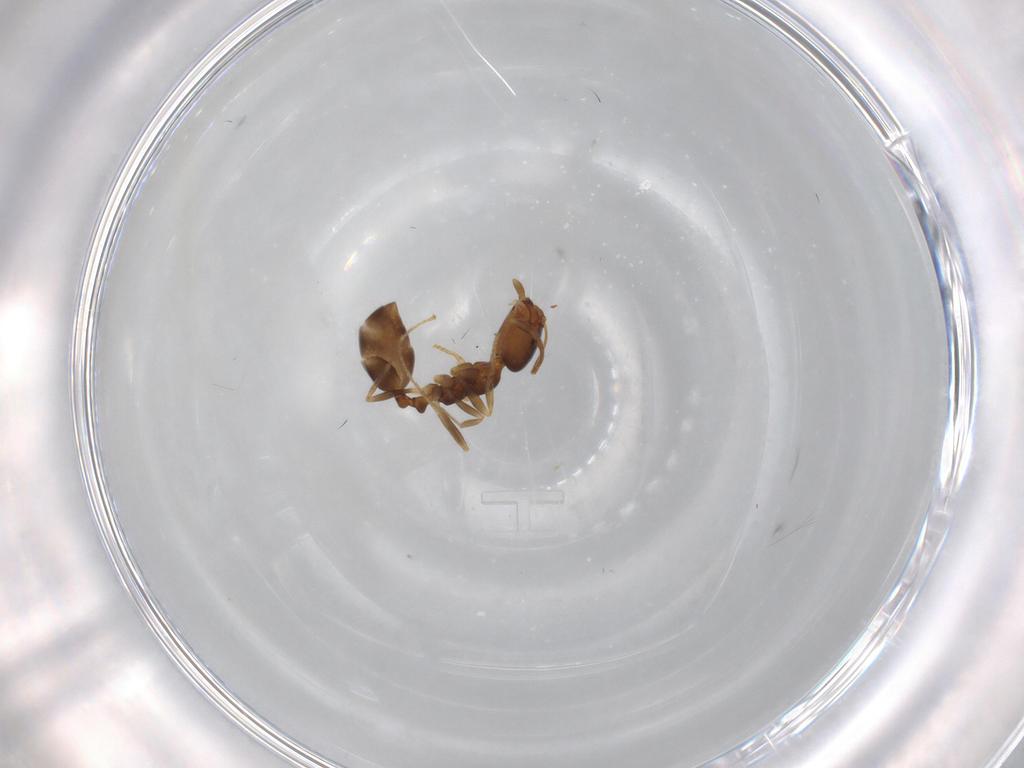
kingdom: Animalia
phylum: Arthropoda
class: Insecta
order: Hymenoptera
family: Formicidae
